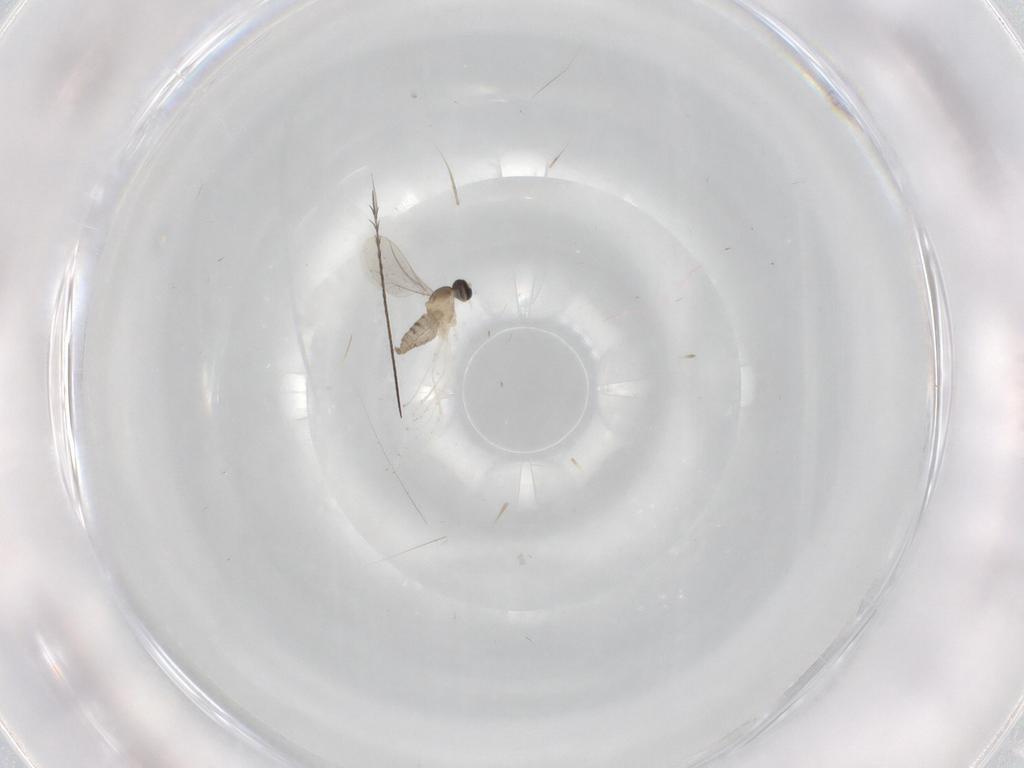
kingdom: Animalia
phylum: Arthropoda
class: Insecta
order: Diptera
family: Cecidomyiidae
